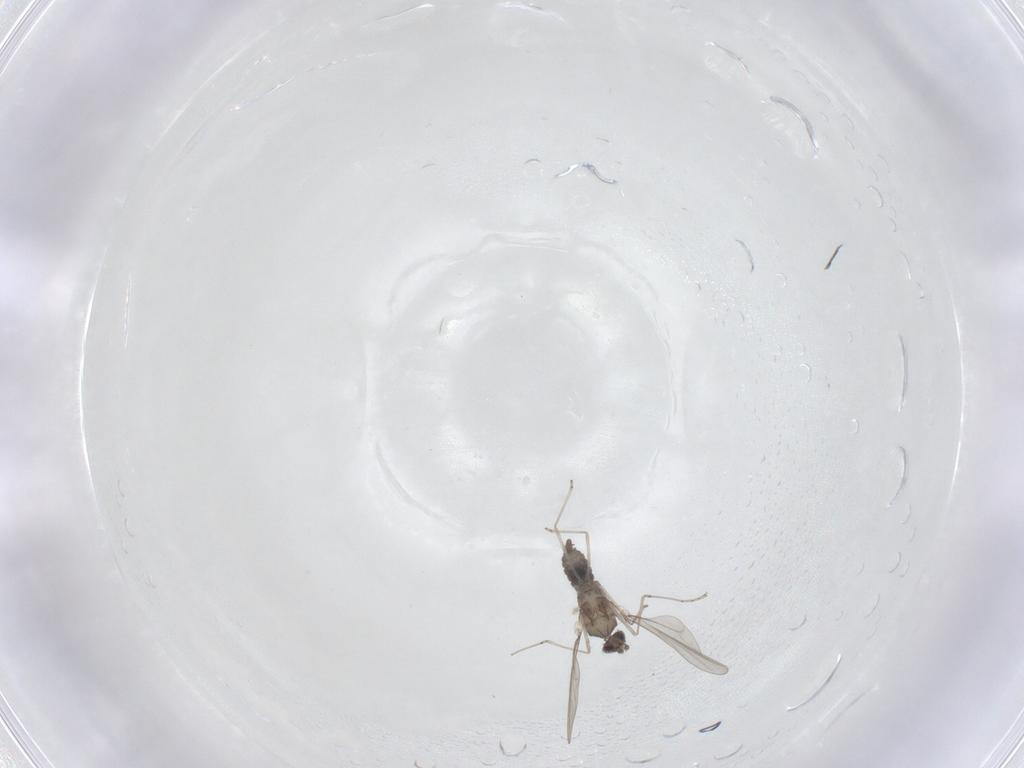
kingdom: Animalia
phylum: Arthropoda
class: Insecta
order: Diptera
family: Cecidomyiidae
